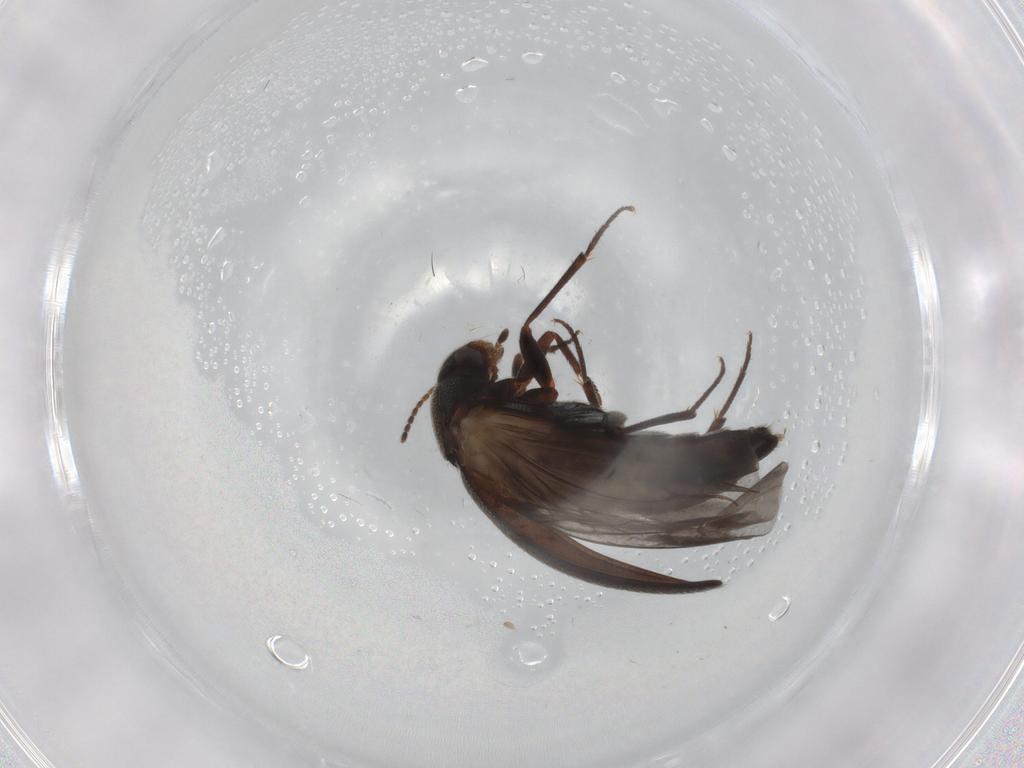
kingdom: Animalia
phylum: Arthropoda
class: Insecta
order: Coleoptera
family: Melandryidae
